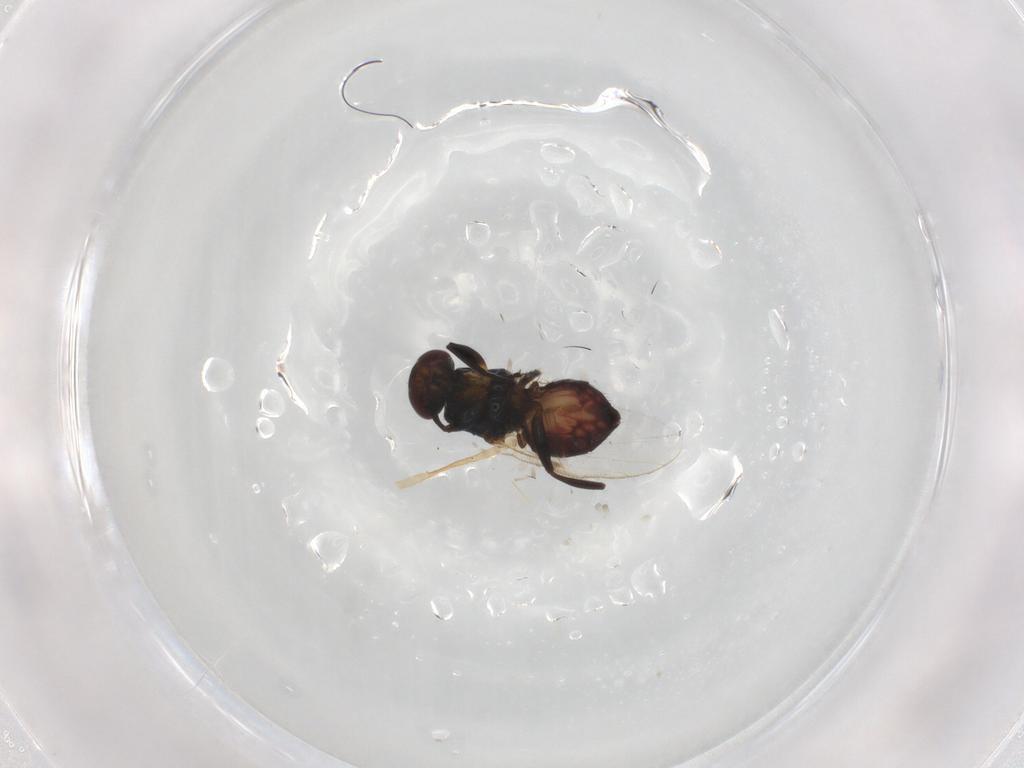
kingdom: Animalia
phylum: Arthropoda
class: Insecta
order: Diptera
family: Chloropidae
